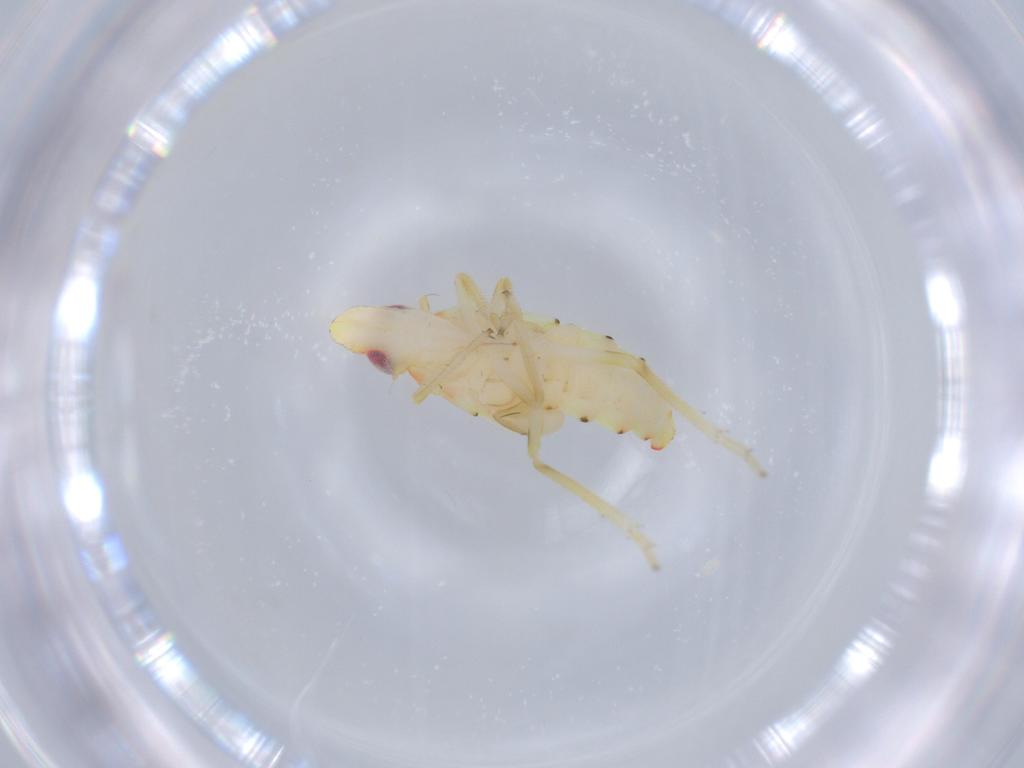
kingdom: Animalia
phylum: Arthropoda
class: Insecta
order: Hemiptera
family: Tropiduchidae
